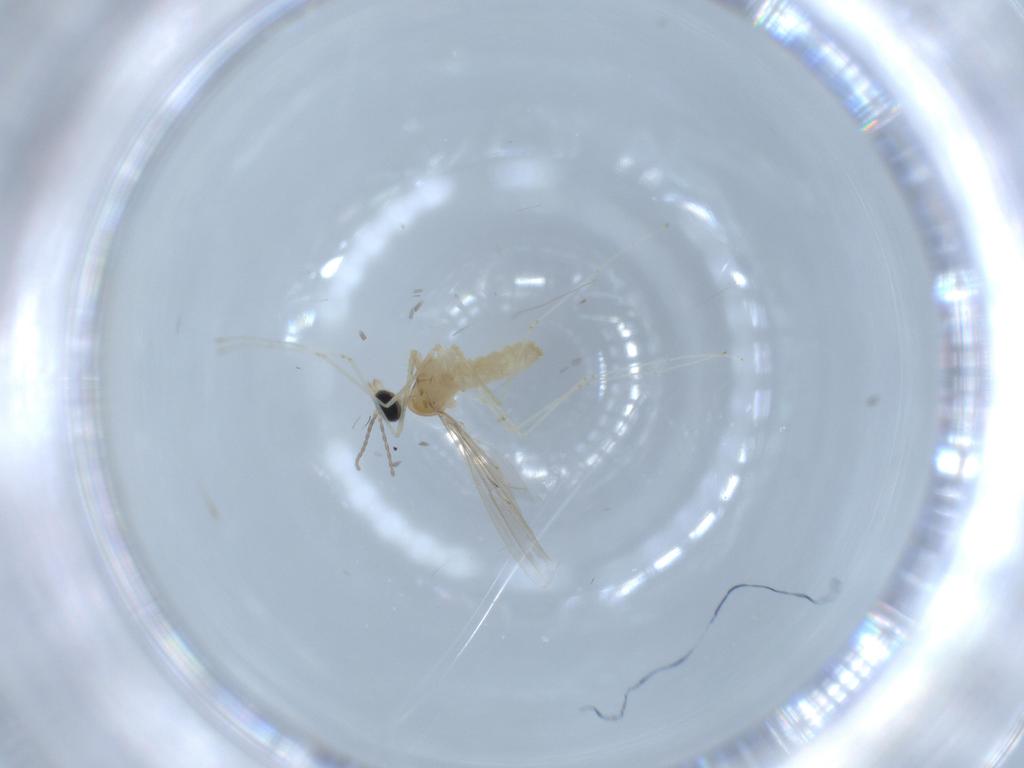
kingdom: Animalia
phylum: Arthropoda
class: Insecta
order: Diptera
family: Cecidomyiidae
